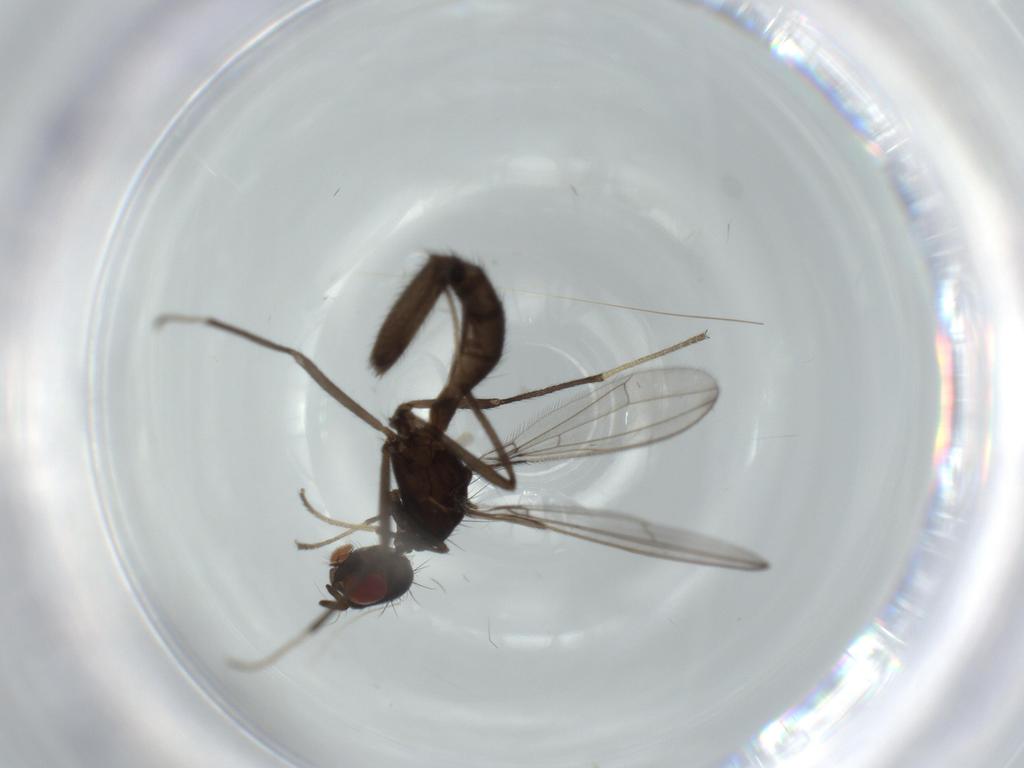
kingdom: Animalia
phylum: Arthropoda
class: Insecta
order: Diptera
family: Richardiidae
